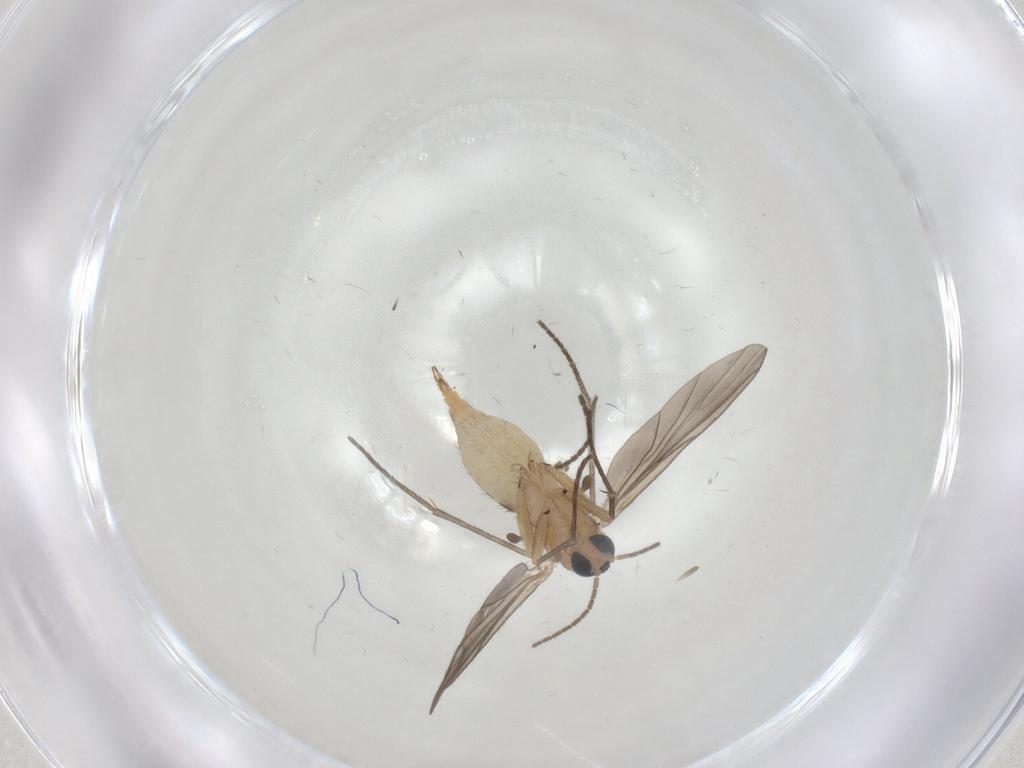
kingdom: Animalia
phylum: Arthropoda
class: Insecta
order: Diptera
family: Sciaridae
